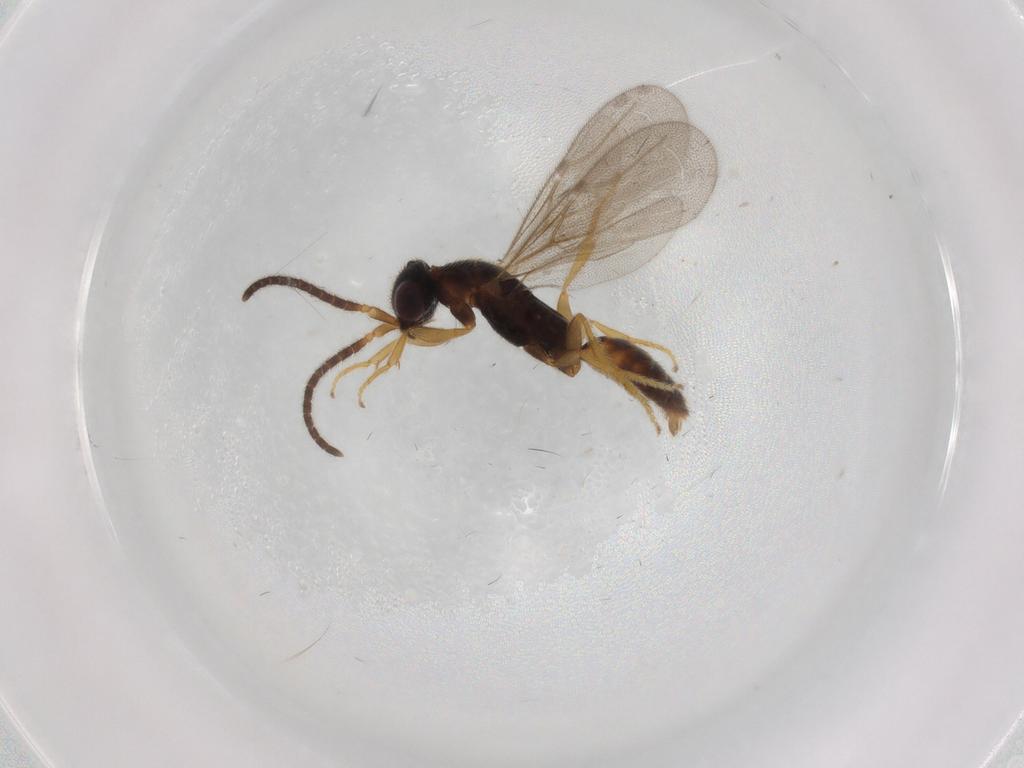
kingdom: Animalia
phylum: Arthropoda
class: Insecta
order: Hymenoptera
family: Bethylidae
